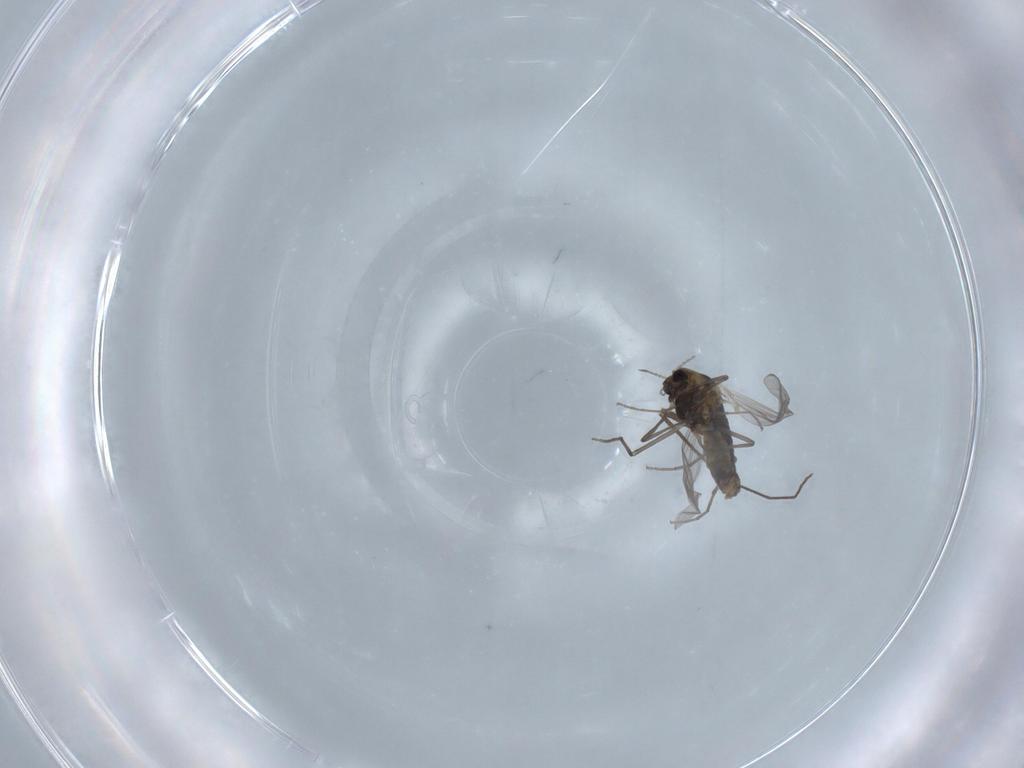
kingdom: Animalia
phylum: Arthropoda
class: Insecta
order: Diptera
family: Chironomidae
